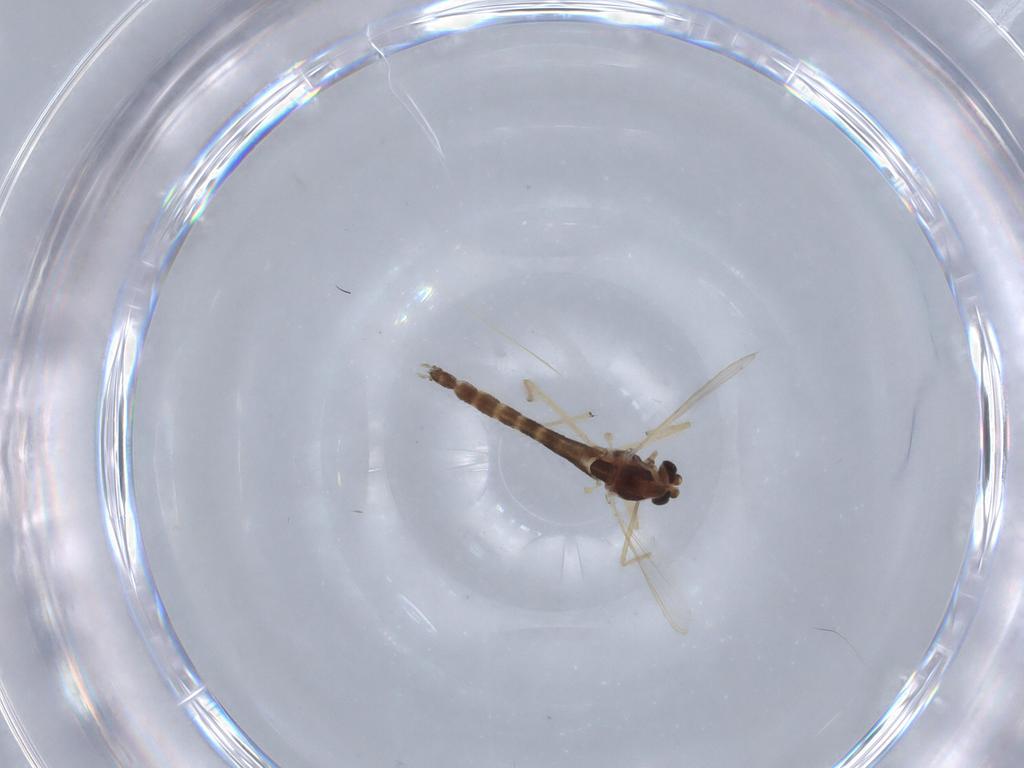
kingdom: Animalia
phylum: Arthropoda
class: Insecta
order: Diptera
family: Chironomidae
